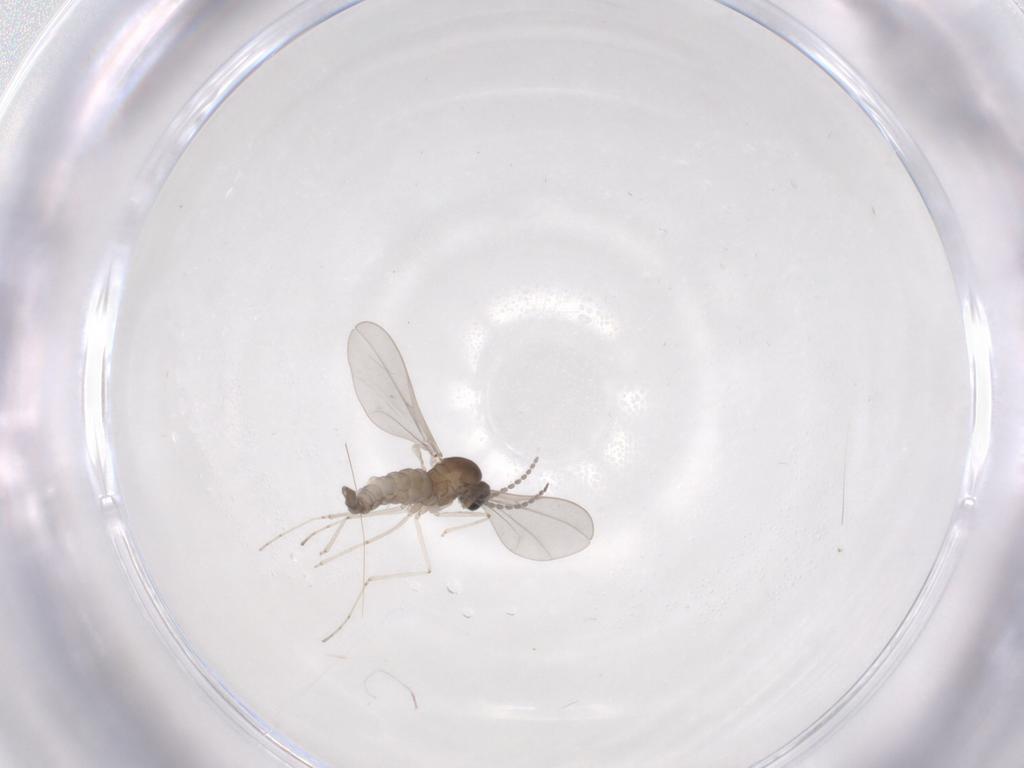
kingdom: Animalia
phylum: Arthropoda
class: Insecta
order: Diptera
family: Cecidomyiidae
